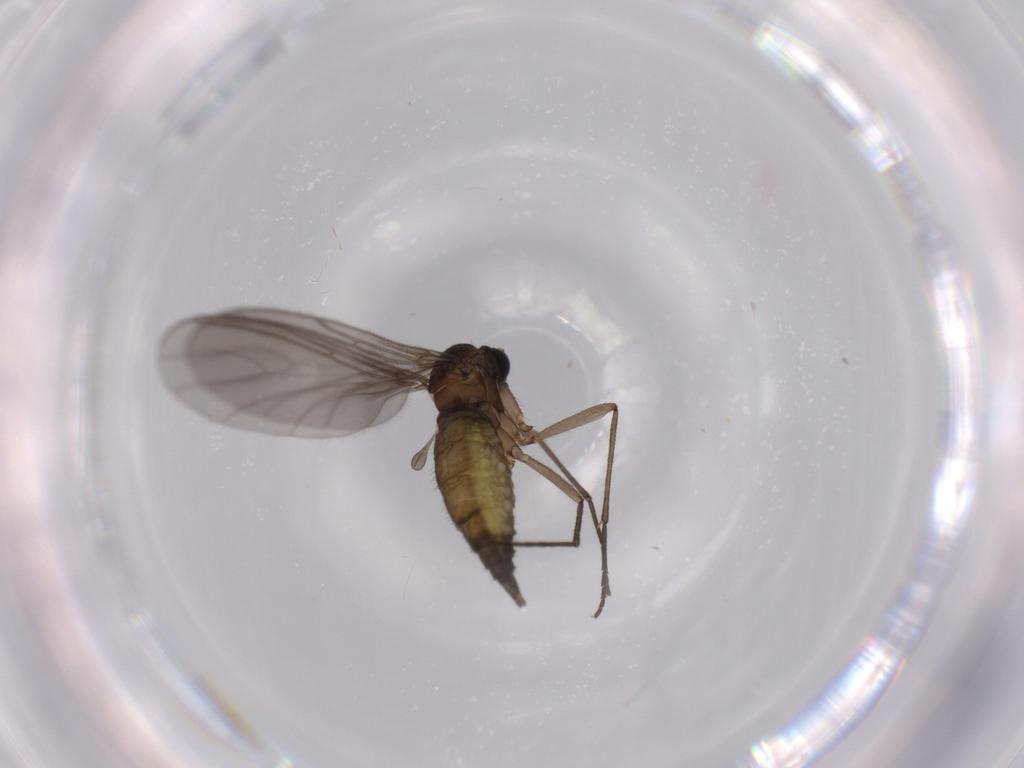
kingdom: Animalia
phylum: Arthropoda
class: Insecta
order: Diptera
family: Sciaridae
